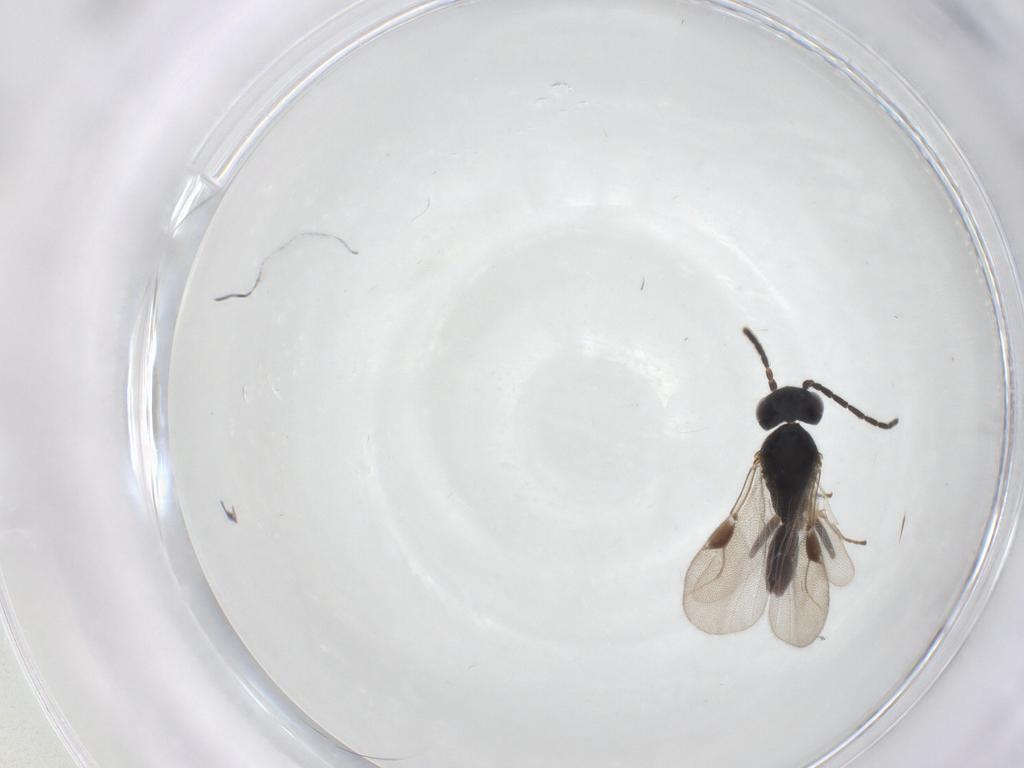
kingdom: Animalia
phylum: Arthropoda
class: Insecta
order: Hymenoptera
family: Dryinidae
